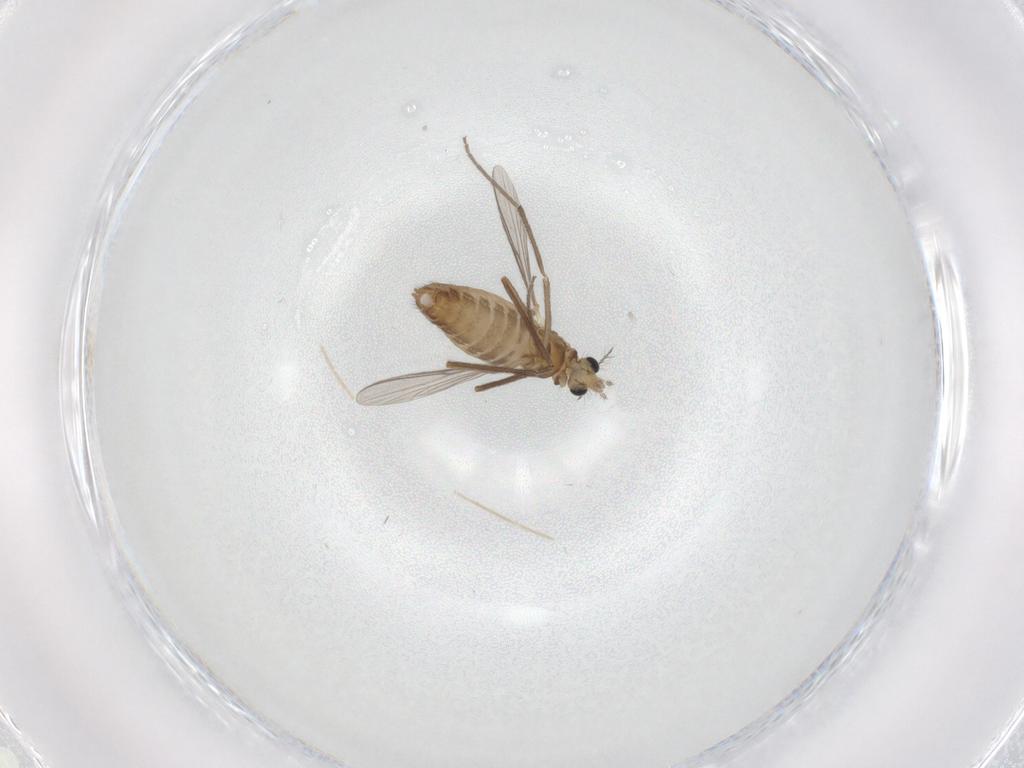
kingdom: Animalia
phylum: Arthropoda
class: Insecta
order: Diptera
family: Chironomidae
